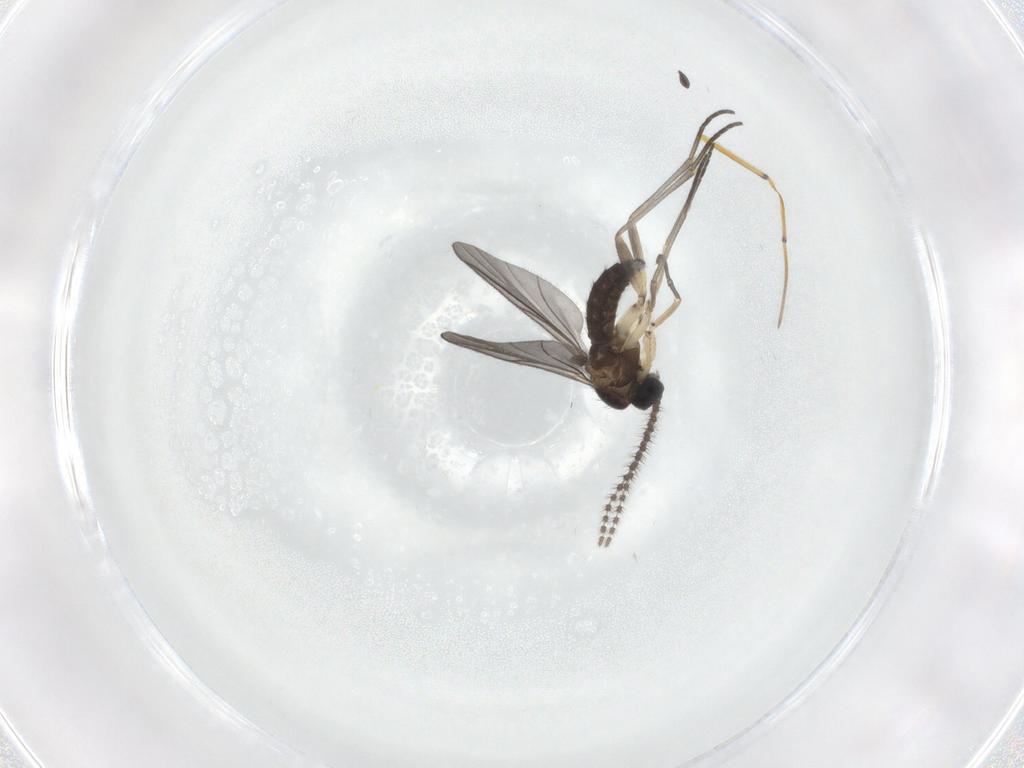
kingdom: Animalia
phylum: Arthropoda
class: Insecta
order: Diptera
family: Sciaridae
